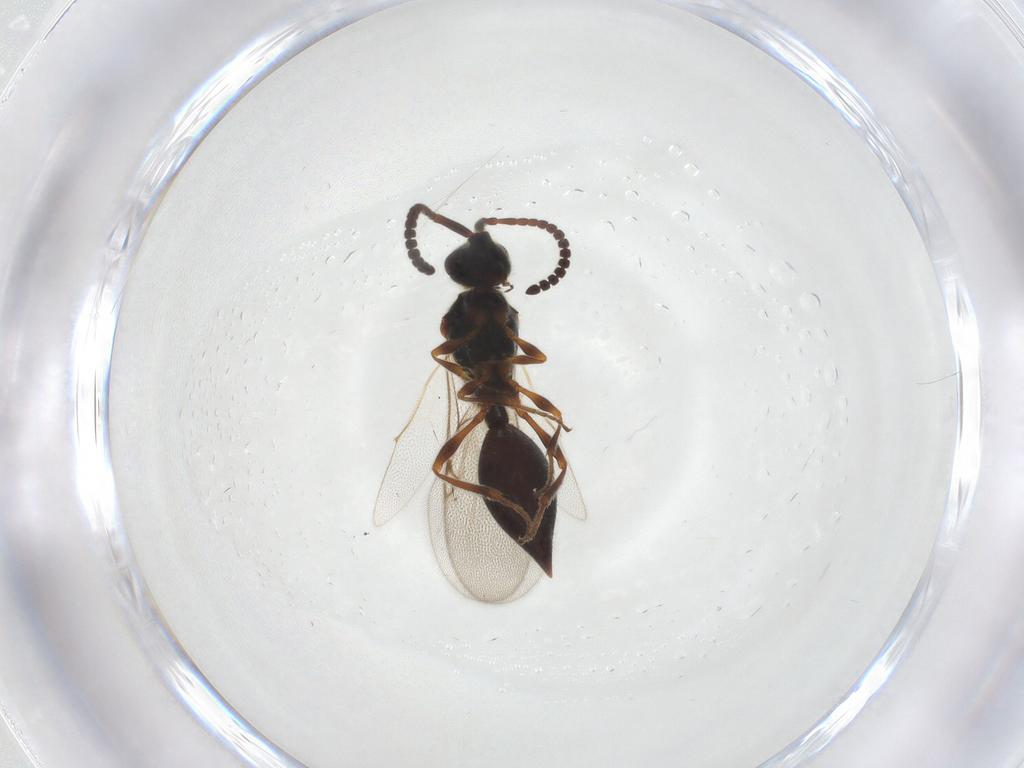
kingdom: Animalia
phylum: Arthropoda
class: Insecta
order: Hymenoptera
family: Diapriidae
